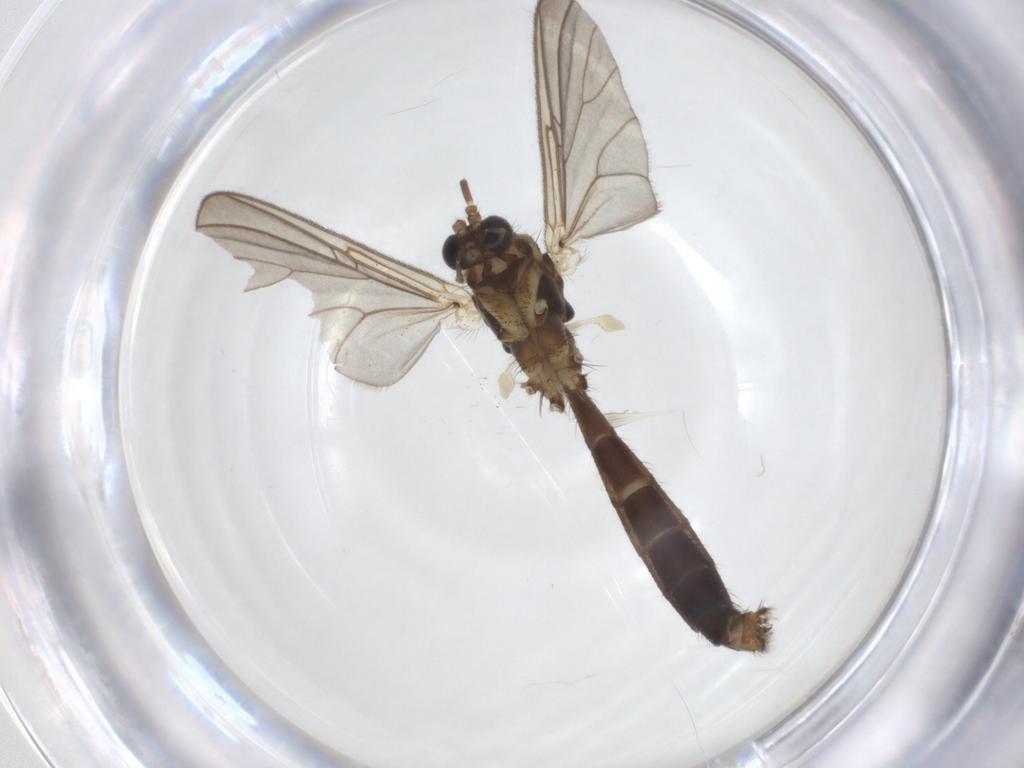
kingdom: Animalia
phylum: Arthropoda
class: Insecta
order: Diptera
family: Mycetophilidae
